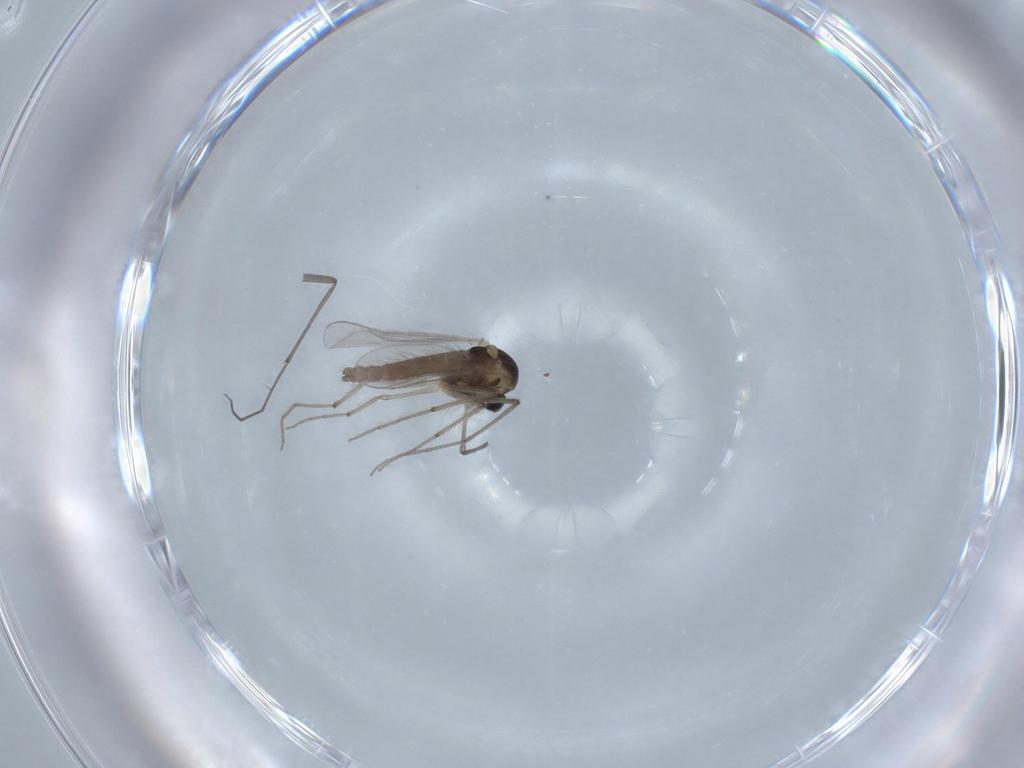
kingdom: Animalia
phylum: Arthropoda
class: Insecta
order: Diptera
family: Chironomidae
